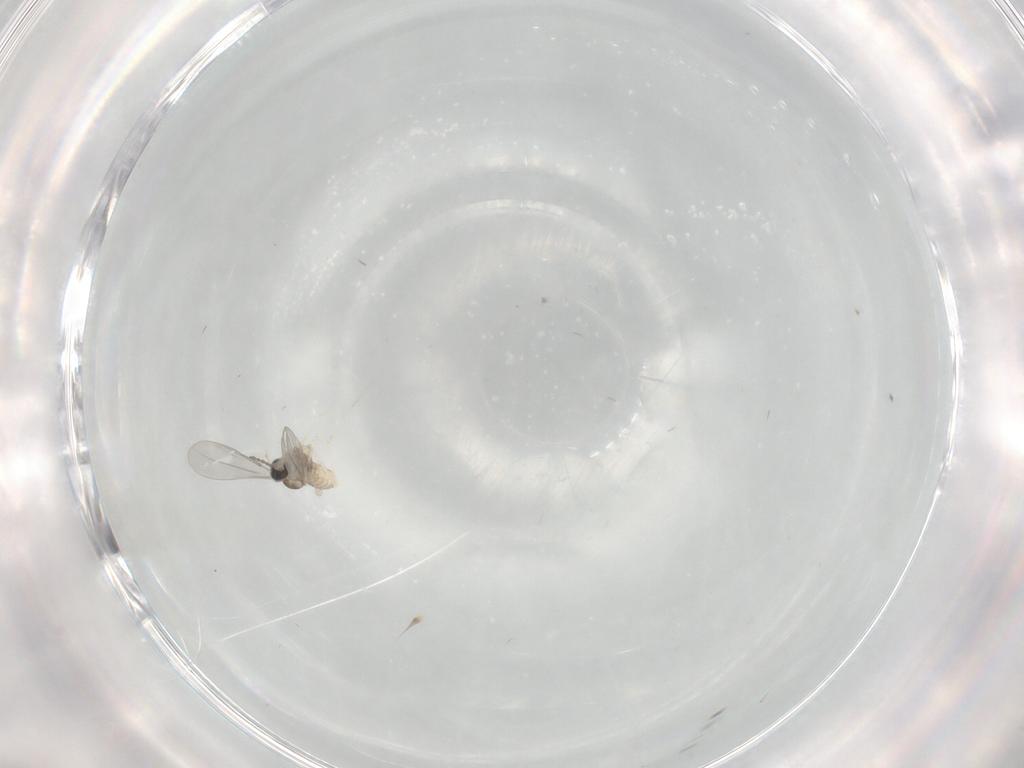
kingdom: Animalia
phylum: Arthropoda
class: Insecta
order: Diptera
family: Cecidomyiidae
